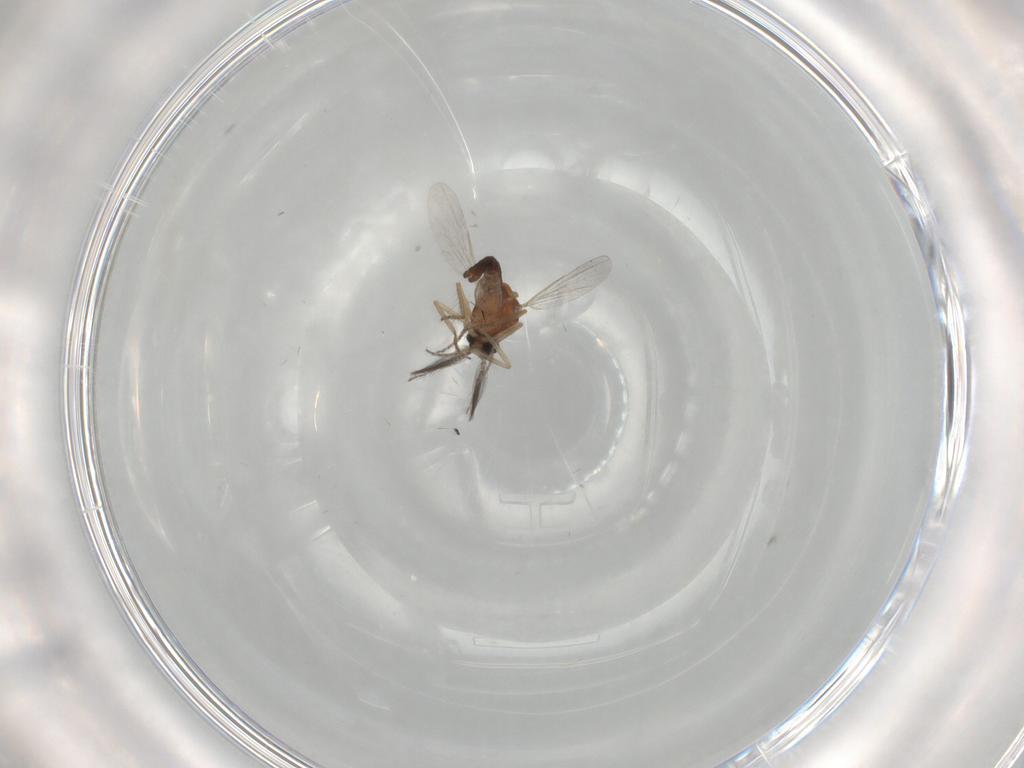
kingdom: Animalia
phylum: Arthropoda
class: Insecta
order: Diptera
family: Ceratopogonidae
